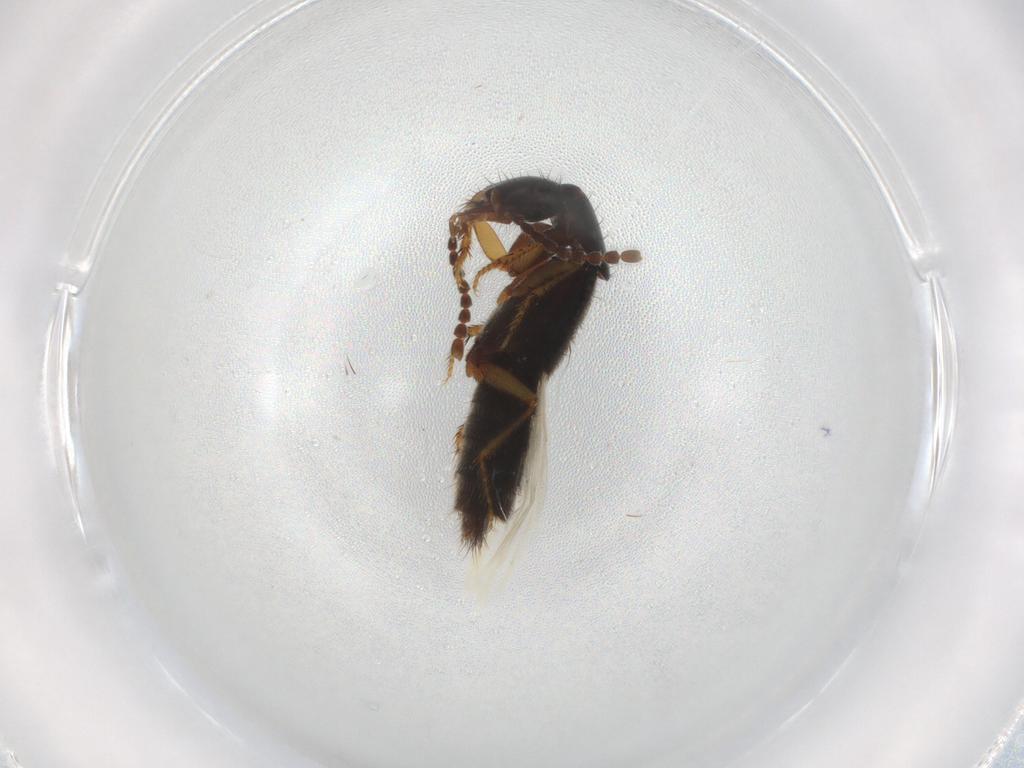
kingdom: Animalia
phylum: Arthropoda
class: Insecta
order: Coleoptera
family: Staphylinidae
